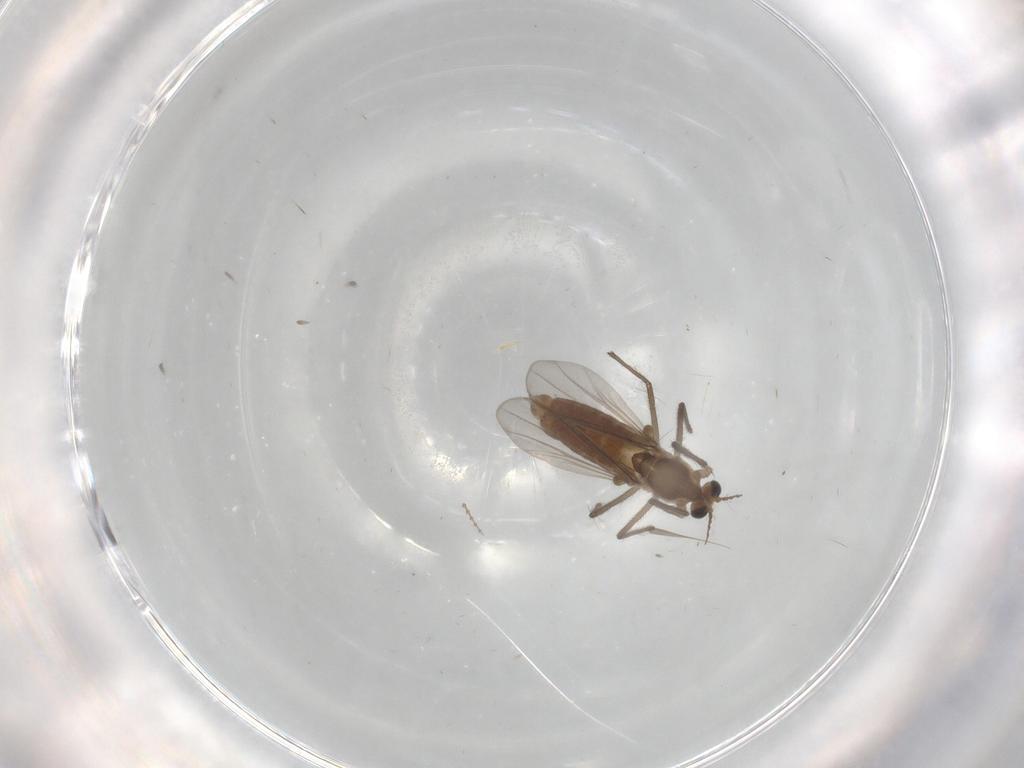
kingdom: Animalia
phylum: Arthropoda
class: Insecta
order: Diptera
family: Chironomidae
